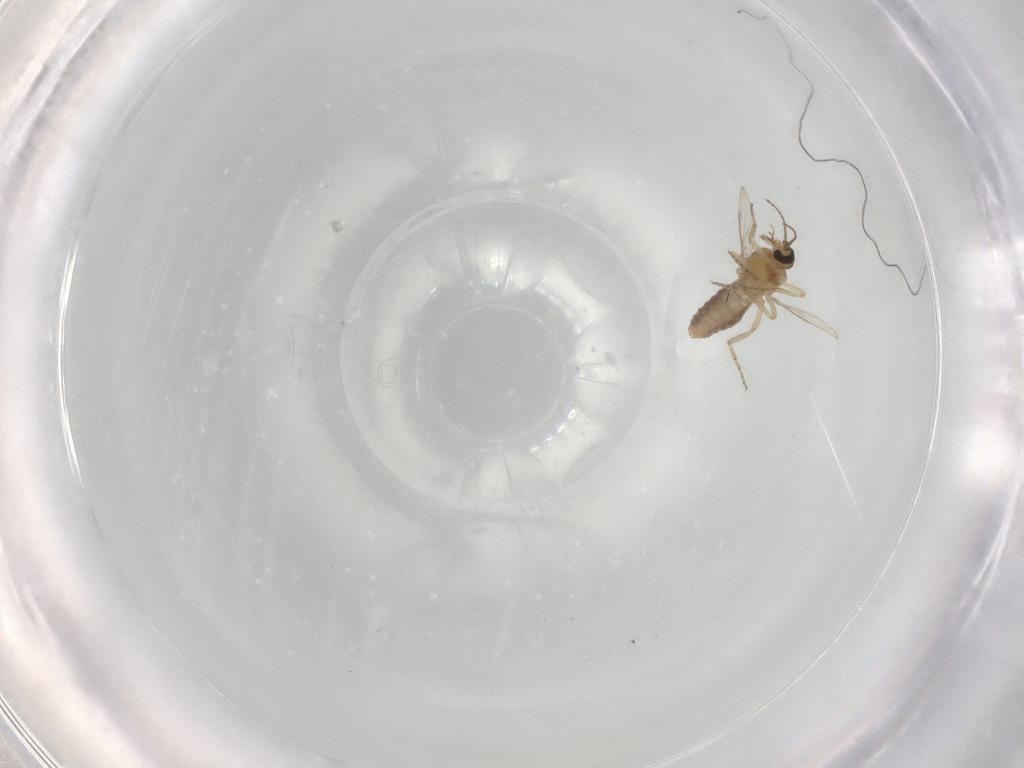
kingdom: Animalia
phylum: Arthropoda
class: Insecta
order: Diptera
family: Ceratopogonidae
